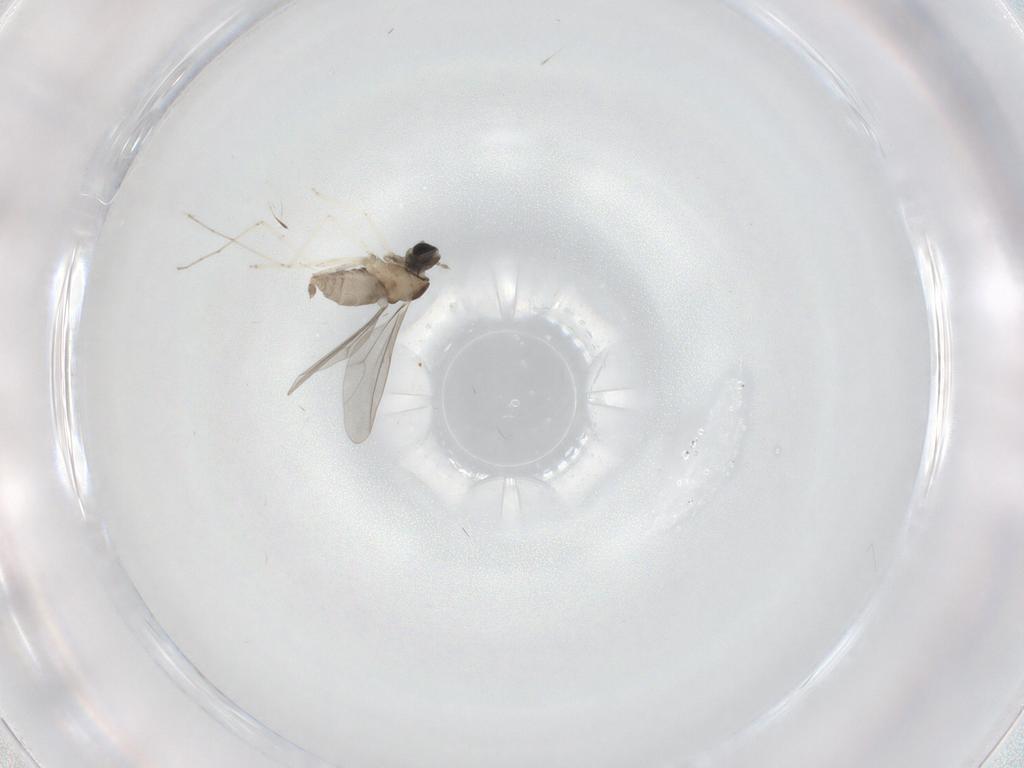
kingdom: Animalia
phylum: Arthropoda
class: Insecta
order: Diptera
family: Cecidomyiidae
